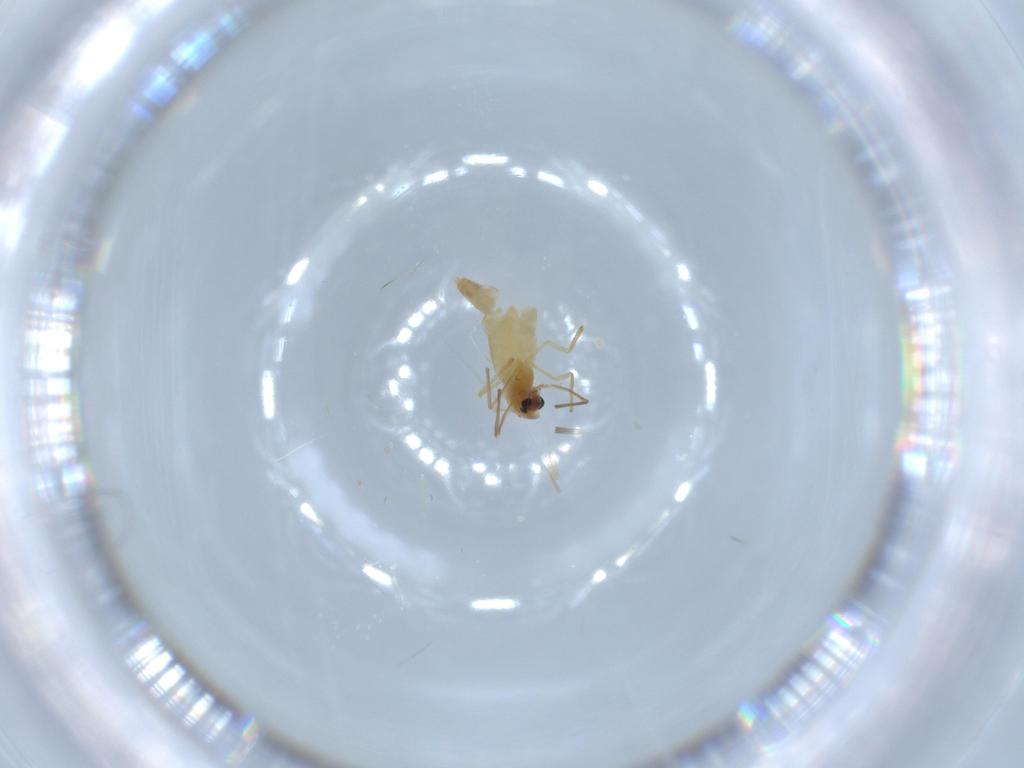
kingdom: Animalia
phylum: Arthropoda
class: Insecta
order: Diptera
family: Chironomidae
